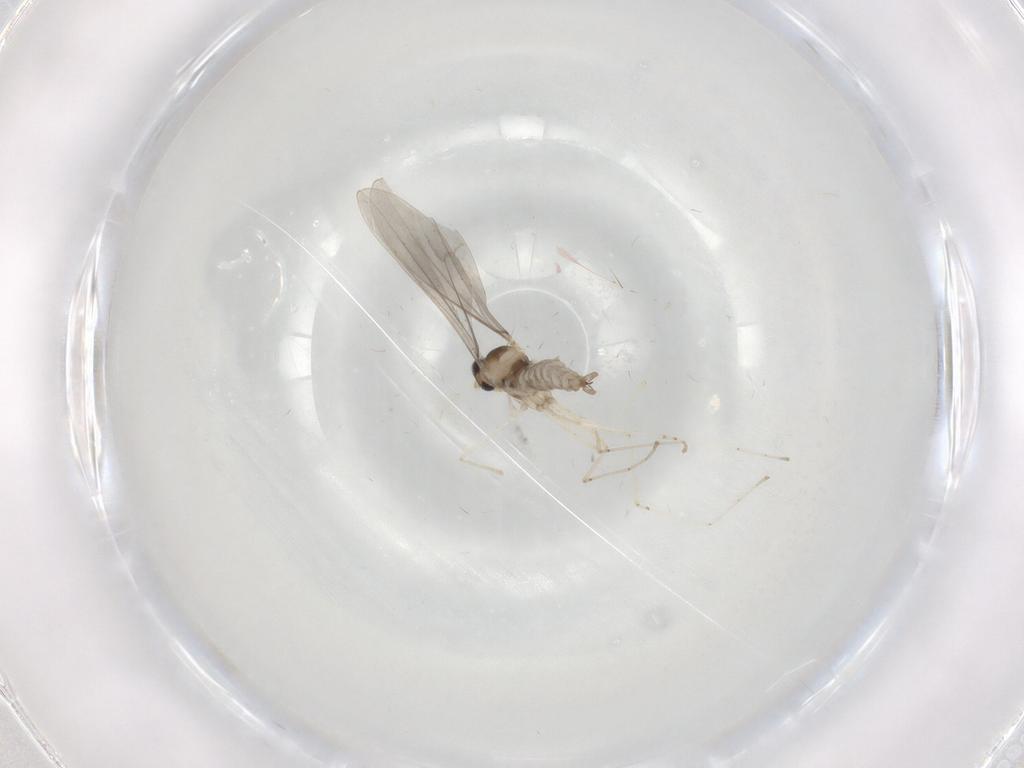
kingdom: Animalia
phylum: Arthropoda
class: Insecta
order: Diptera
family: Cecidomyiidae
